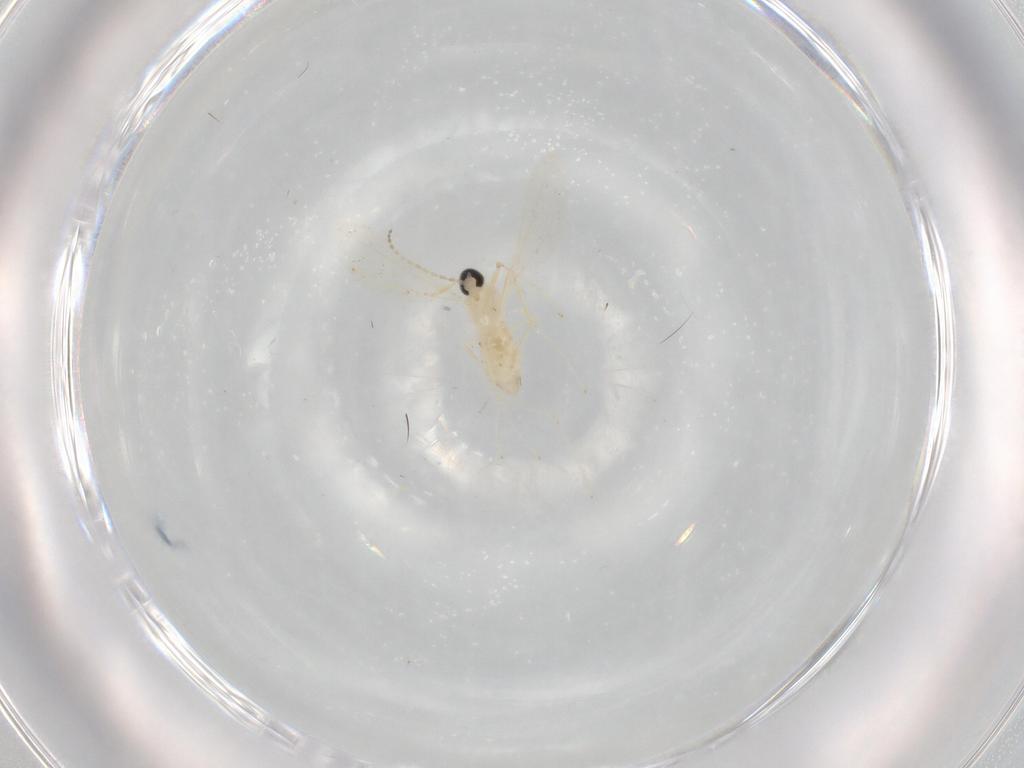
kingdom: Animalia
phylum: Arthropoda
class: Insecta
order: Diptera
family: Cecidomyiidae
